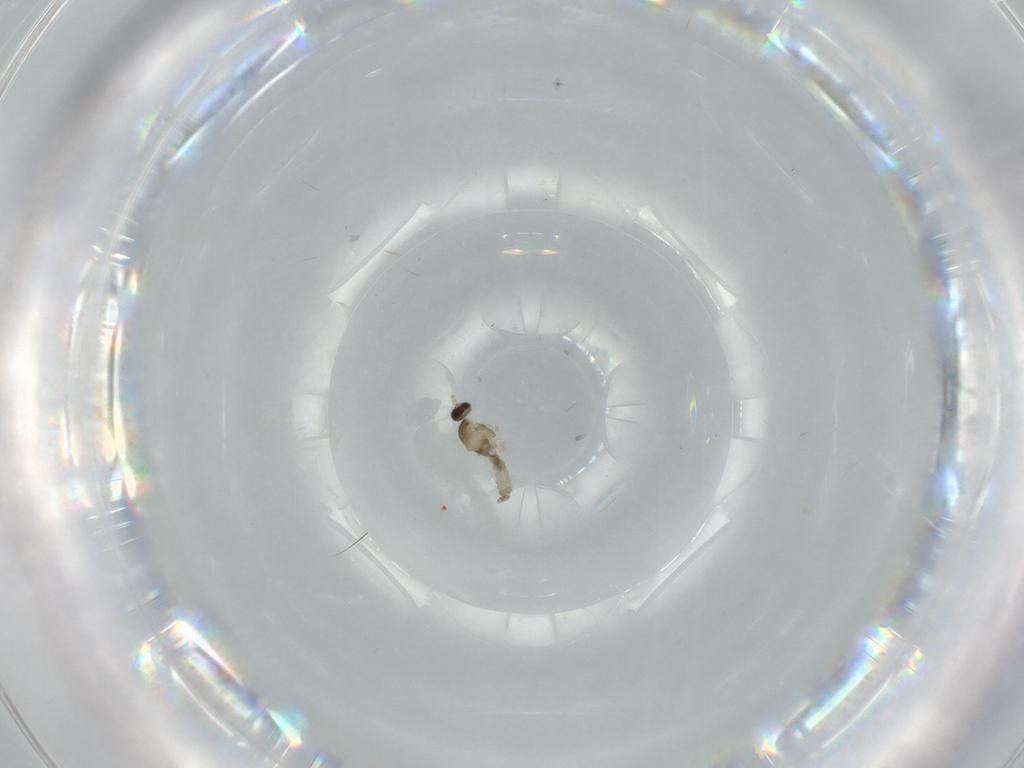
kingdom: Animalia
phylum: Arthropoda
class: Insecta
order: Diptera
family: Cecidomyiidae
